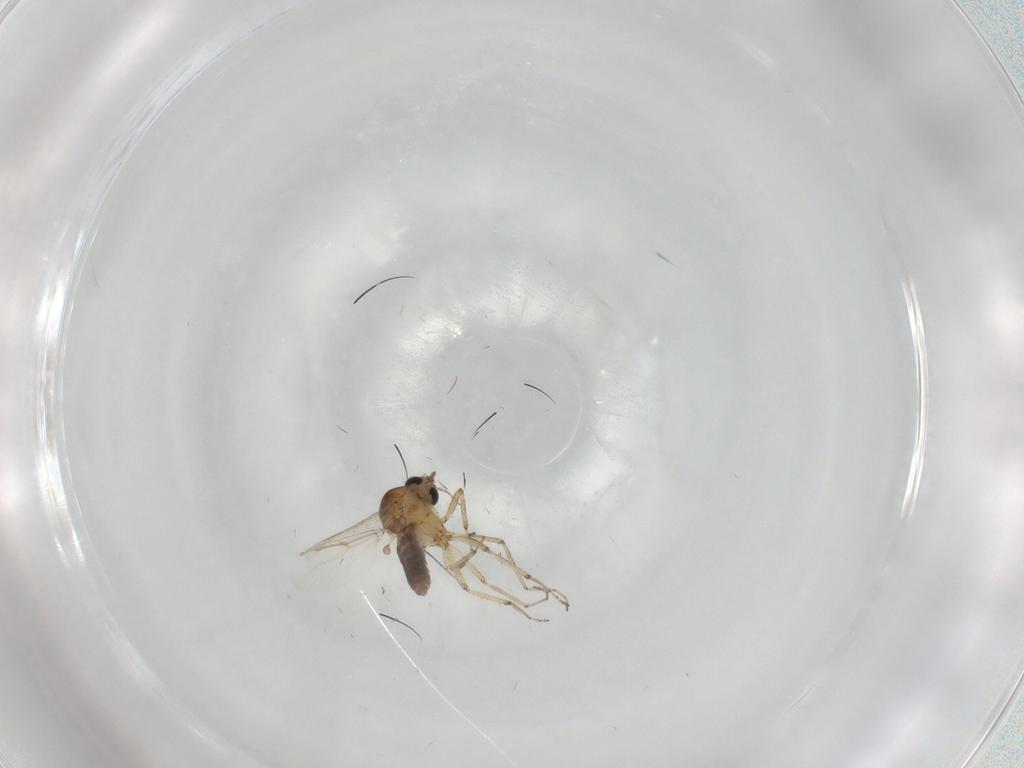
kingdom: Animalia
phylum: Arthropoda
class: Insecta
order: Diptera
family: Ceratopogonidae
